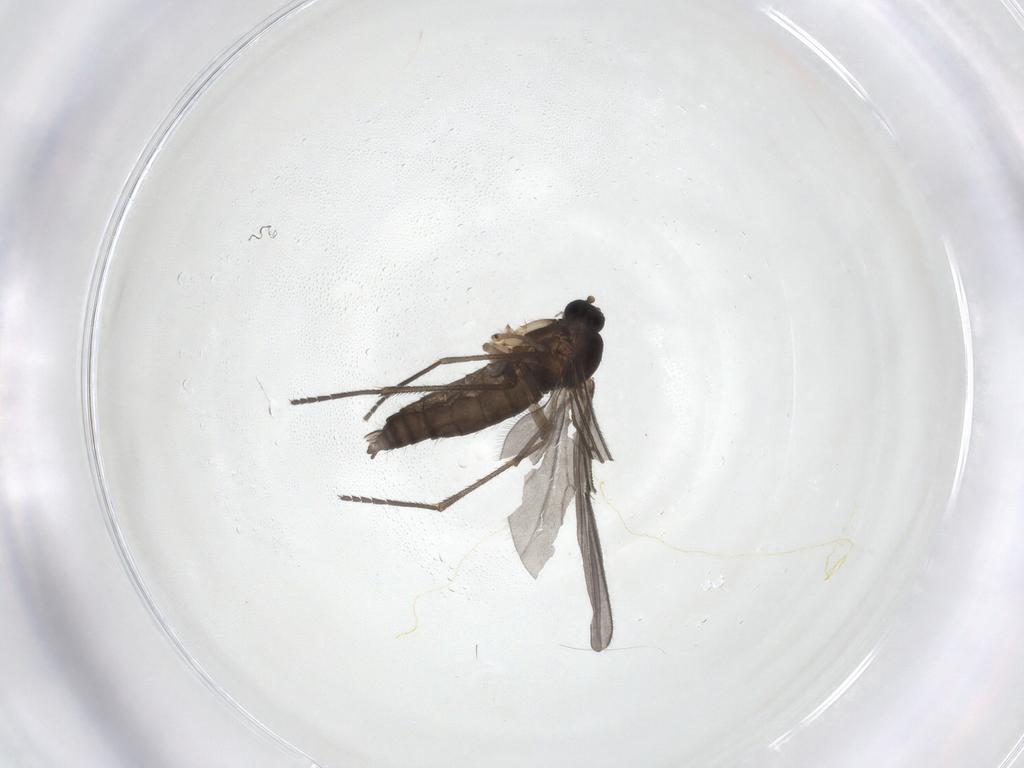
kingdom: Animalia
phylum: Arthropoda
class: Insecta
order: Diptera
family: Sciaridae
